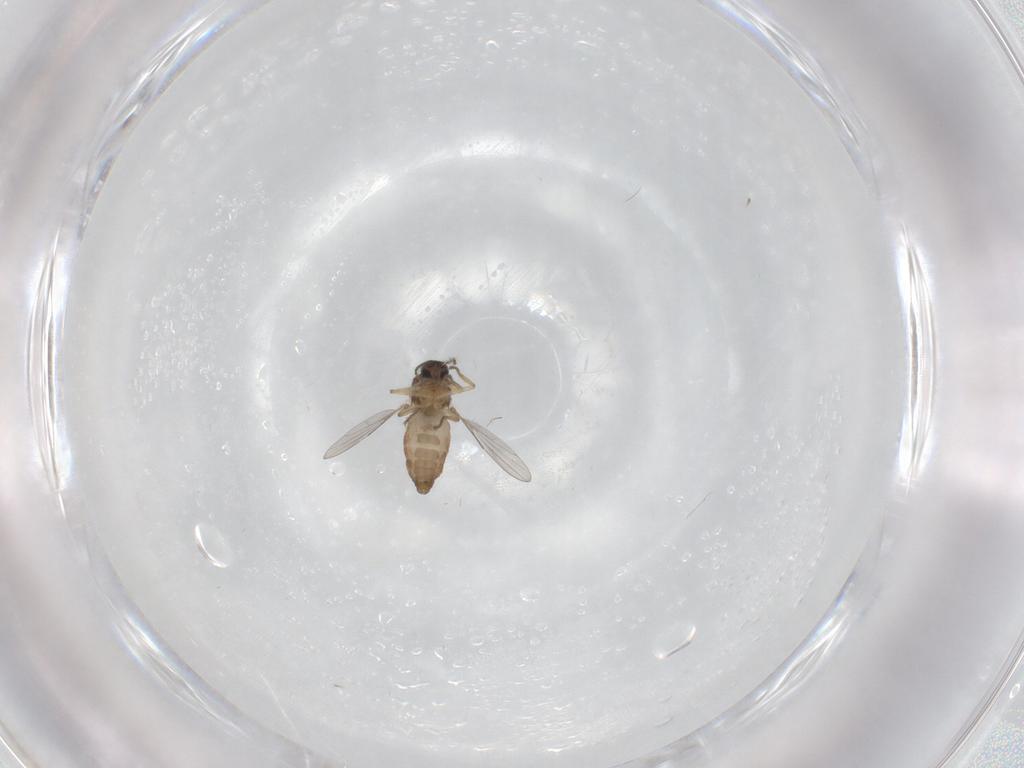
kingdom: Animalia
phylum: Arthropoda
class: Insecta
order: Diptera
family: Ceratopogonidae
